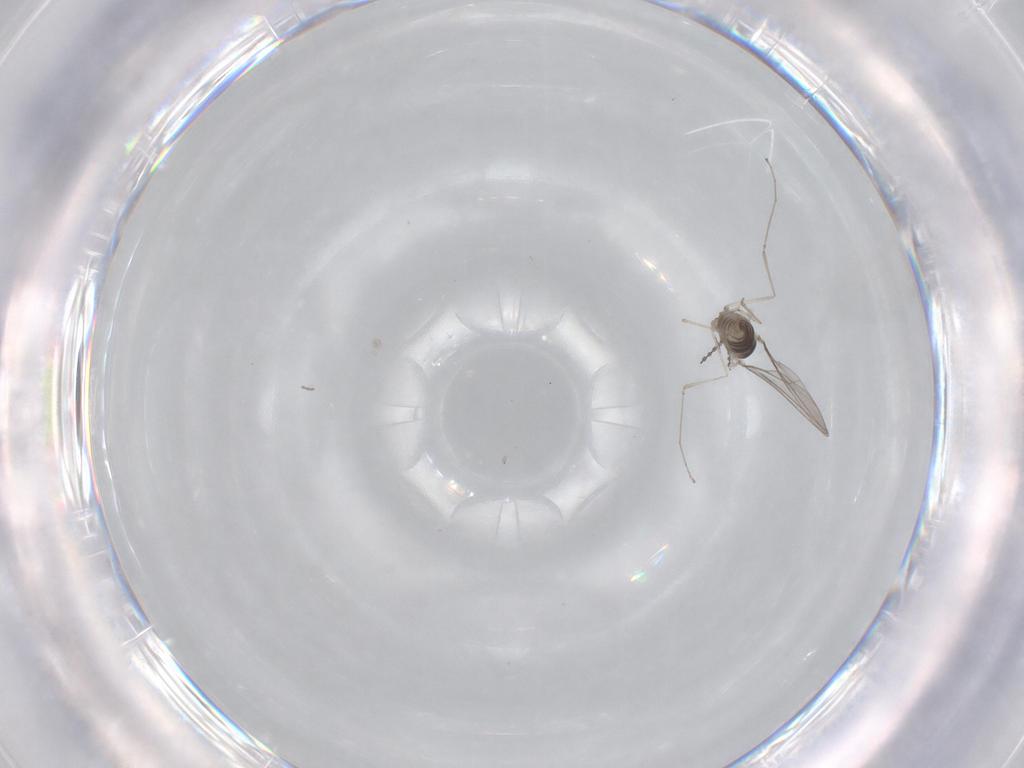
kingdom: Animalia
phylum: Arthropoda
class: Insecta
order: Diptera
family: Cecidomyiidae
